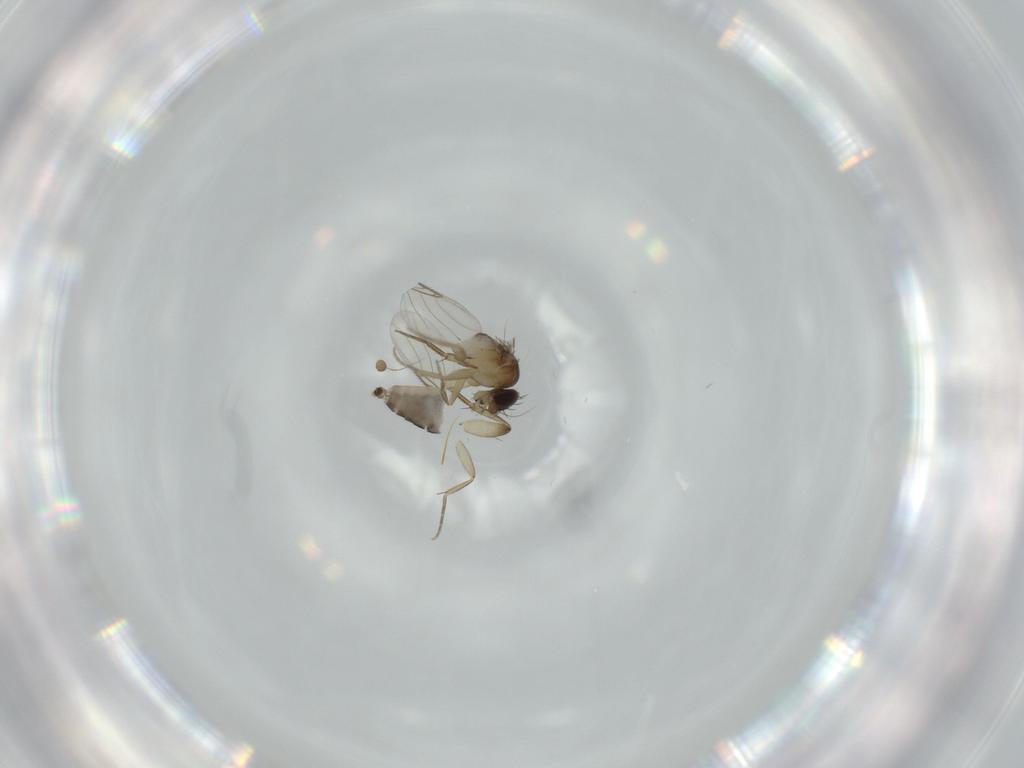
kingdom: Animalia
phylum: Arthropoda
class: Insecta
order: Diptera
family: Phoridae
